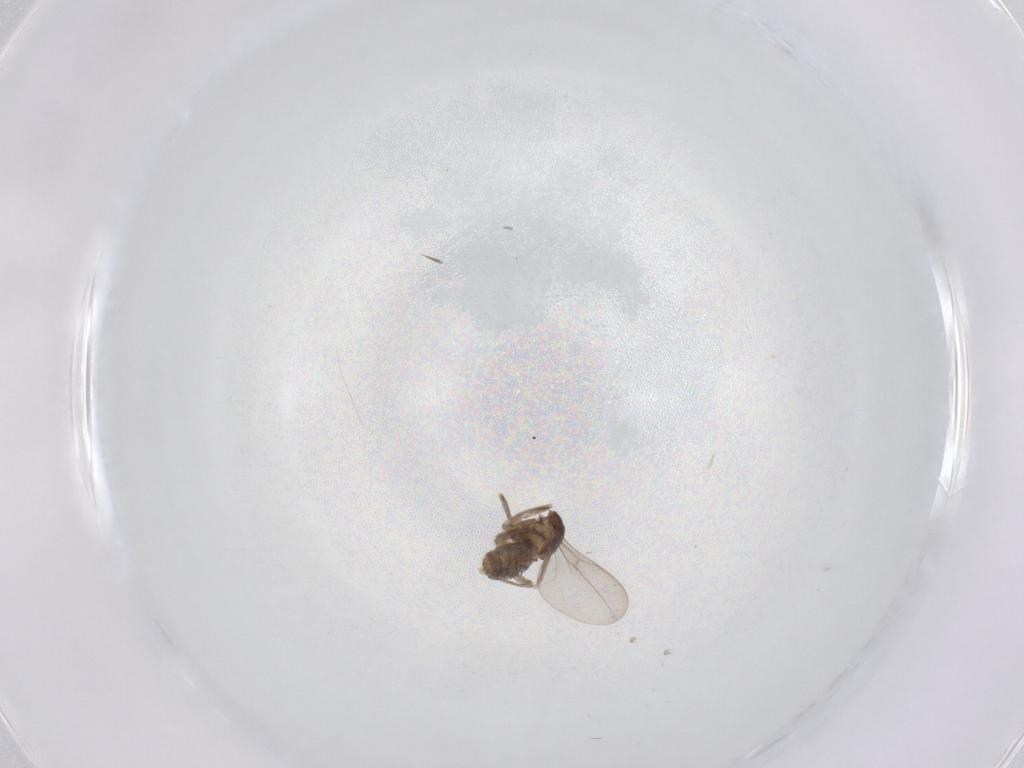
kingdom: Animalia
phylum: Arthropoda
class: Insecta
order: Diptera
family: Cecidomyiidae
